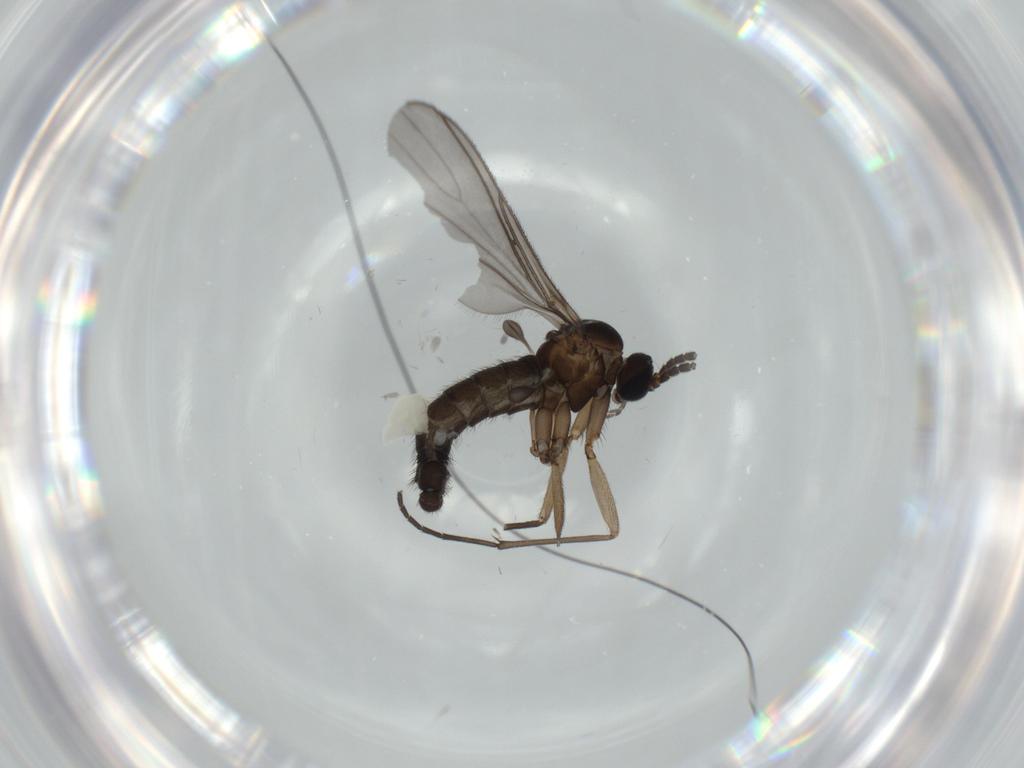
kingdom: Animalia
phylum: Arthropoda
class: Insecta
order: Diptera
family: Sciaridae
